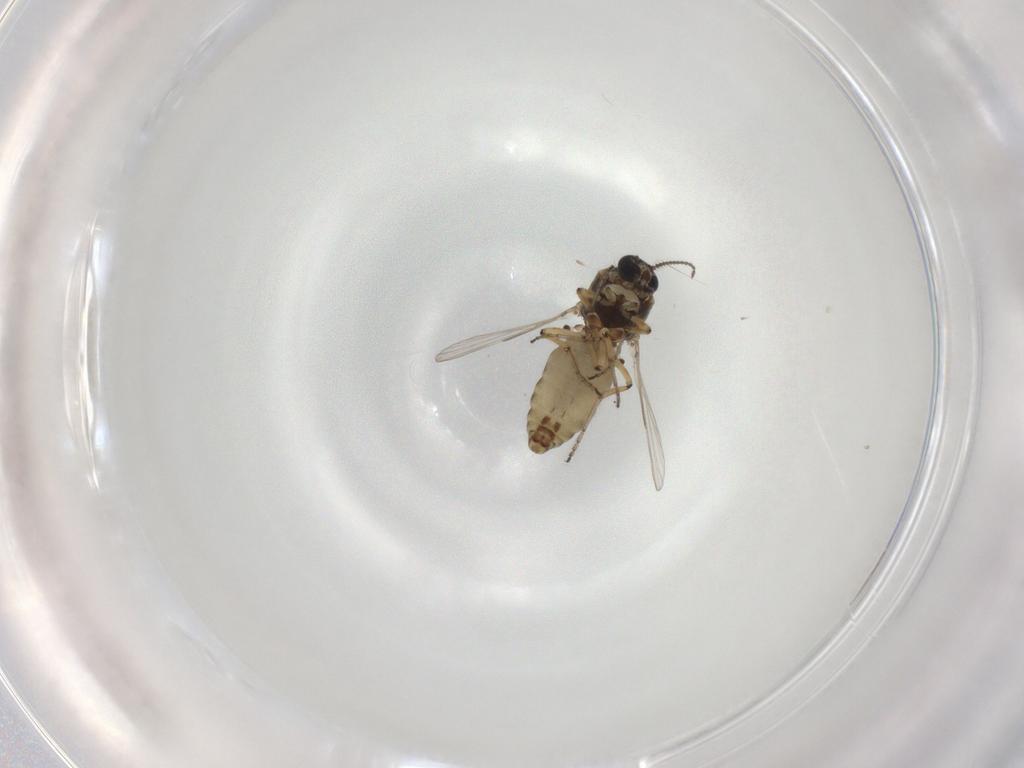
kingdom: Animalia
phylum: Arthropoda
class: Insecta
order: Diptera
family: Ceratopogonidae
